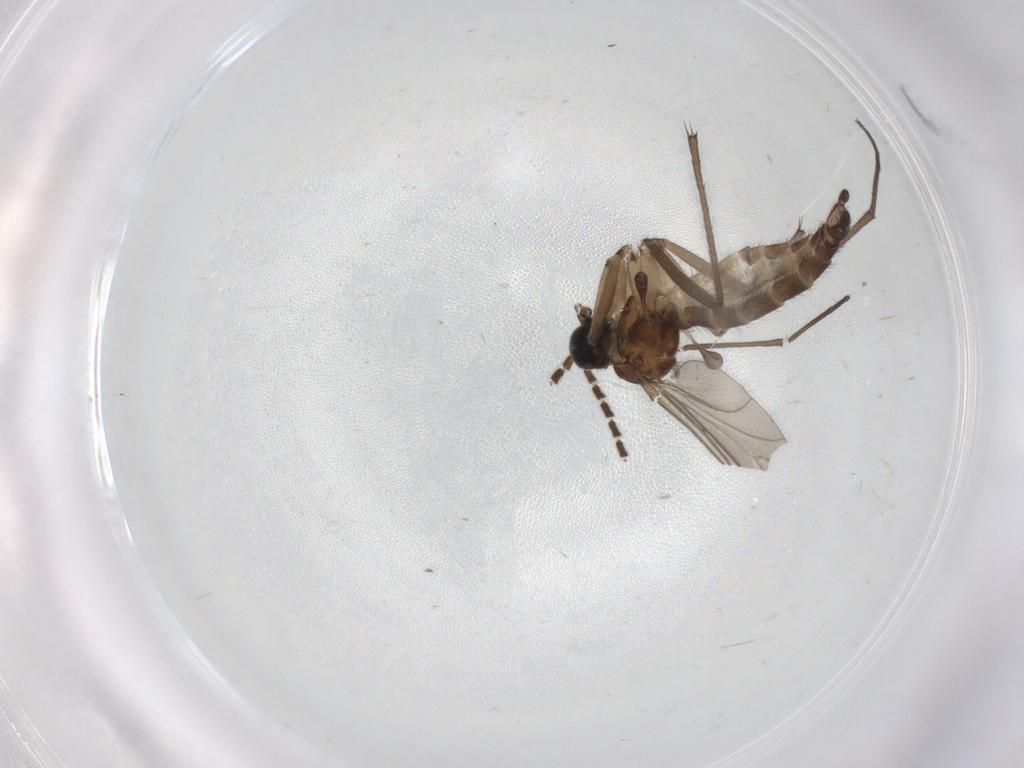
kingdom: Animalia
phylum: Arthropoda
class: Insecta
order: Diptera
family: Sciaridae
